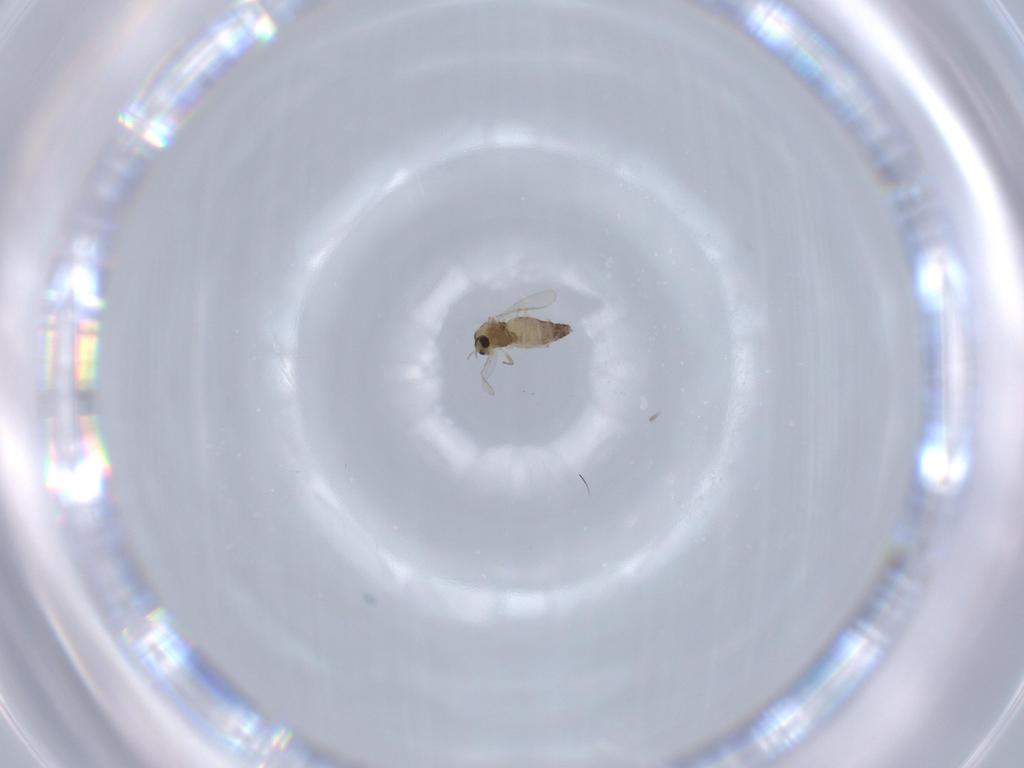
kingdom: Animalia
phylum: Arthropoda
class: Insecta
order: Diptera
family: Chironomidae
